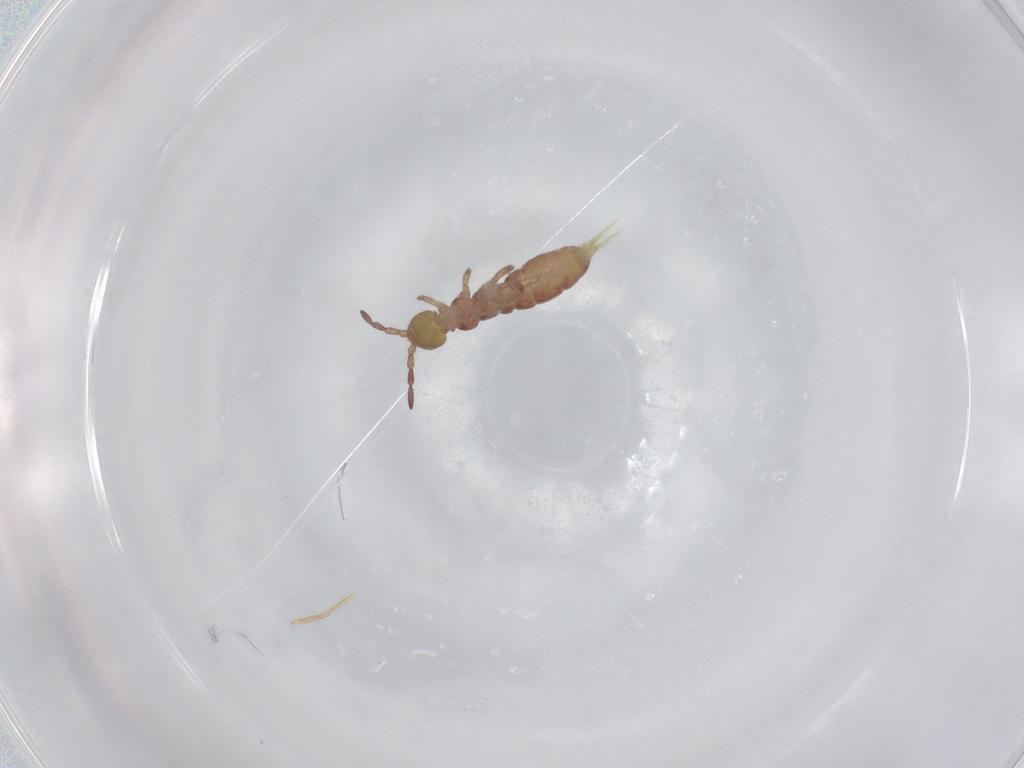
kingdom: Animalia
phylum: Arthropoda
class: Collembola
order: Entomobryomorpha
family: Isotomidae
